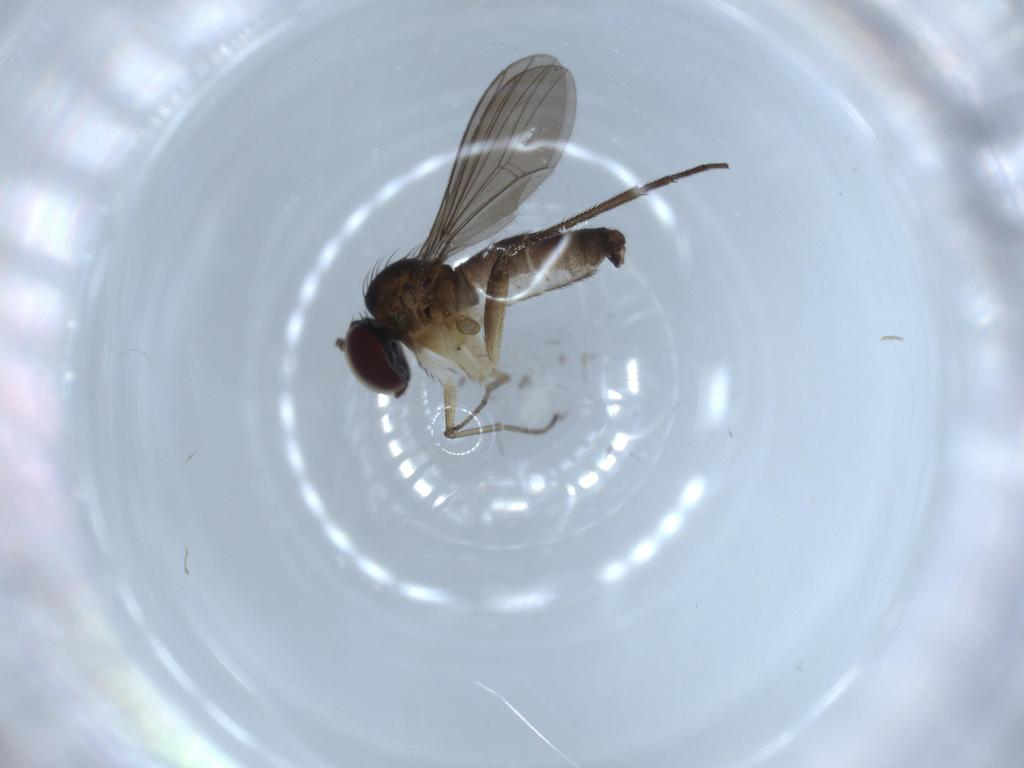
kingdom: Animalia
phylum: Arthropoda
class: Insecta
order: Diptera
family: Dolichopodidae
